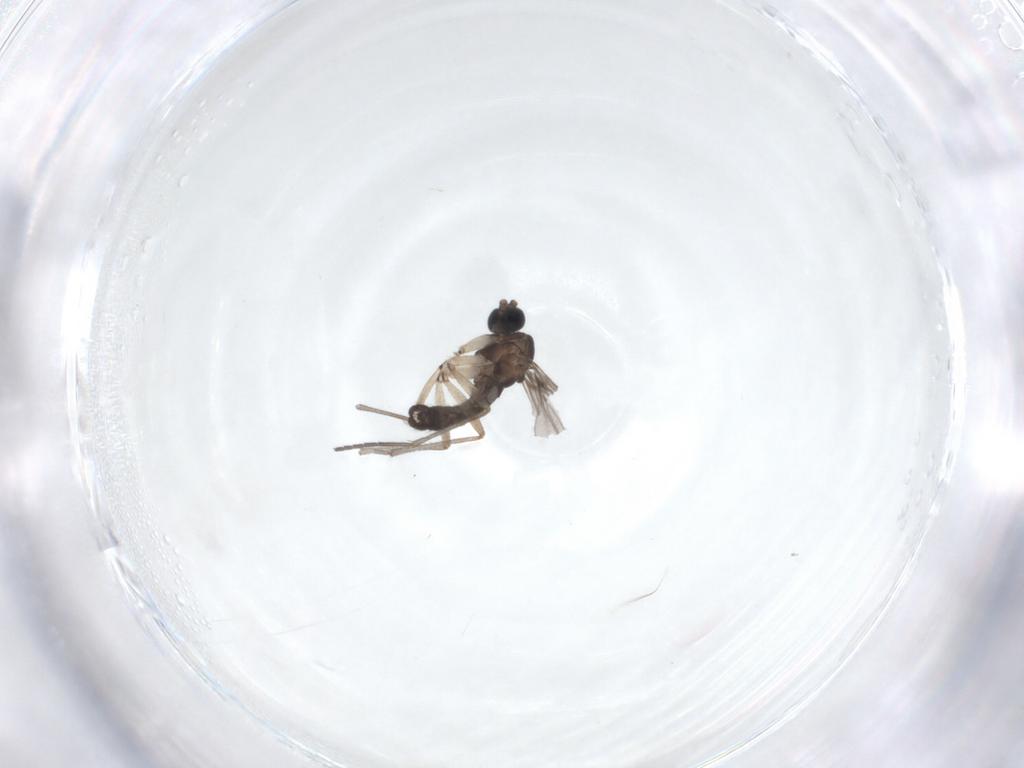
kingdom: Animalia
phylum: Arthropoda
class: Insecta
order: Diptera
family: Sciaridae
